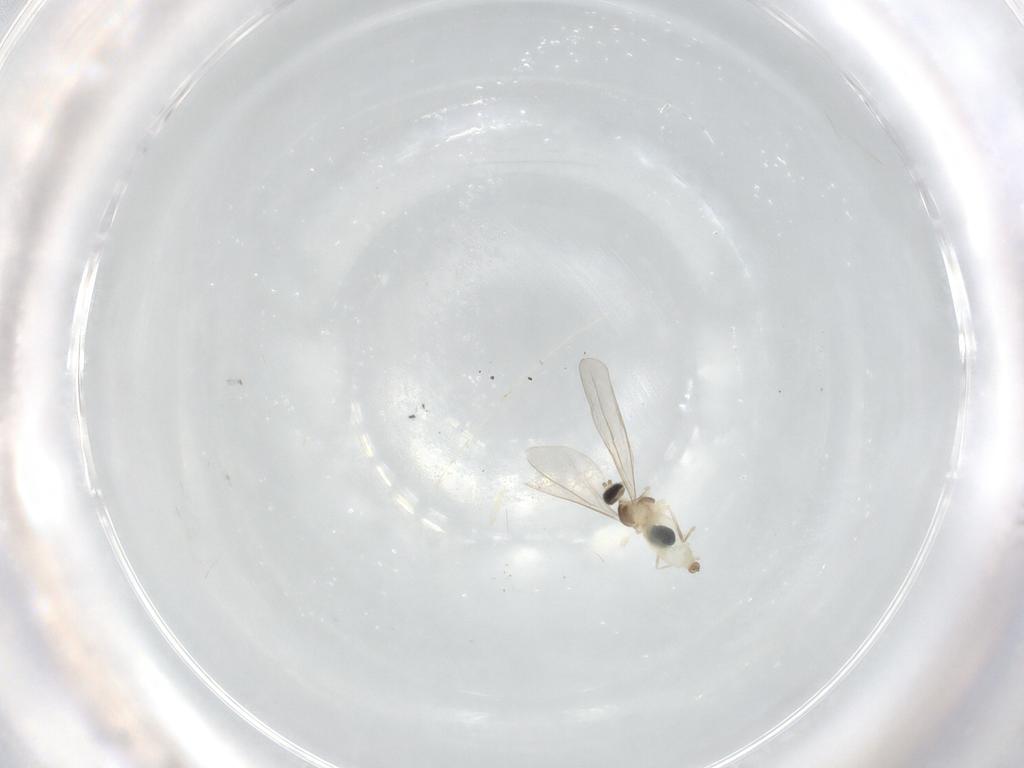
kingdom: Animalia
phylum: Arthropoda
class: Insecta
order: Diptera
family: Cecidomyiidae
